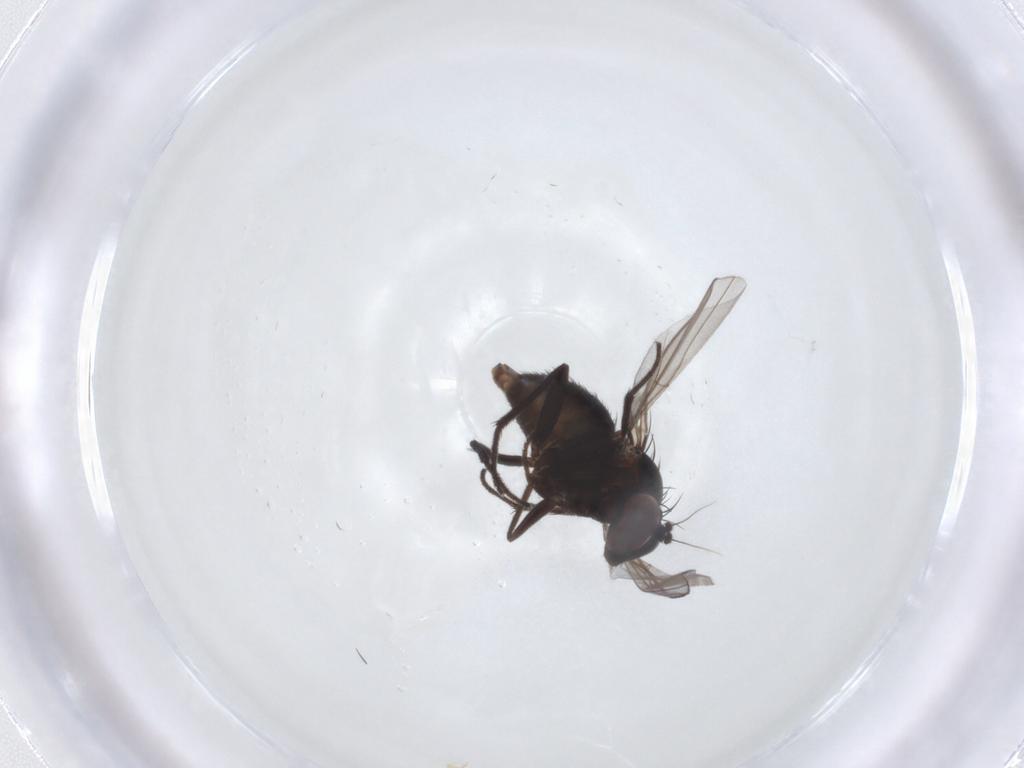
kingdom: Animalia
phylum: Arthropoda
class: Insecta
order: Diptera
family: Dolichopodidae
